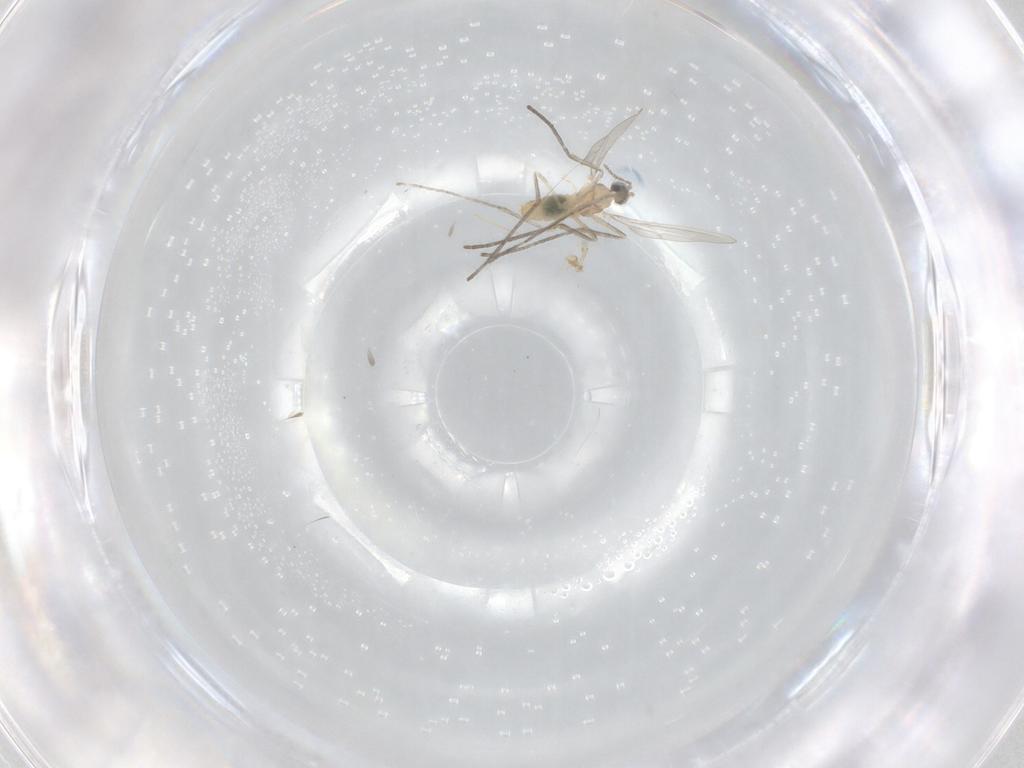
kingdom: Animalia
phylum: Arthropoda
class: Insecta
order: Diptera
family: Cecidomyiidae
